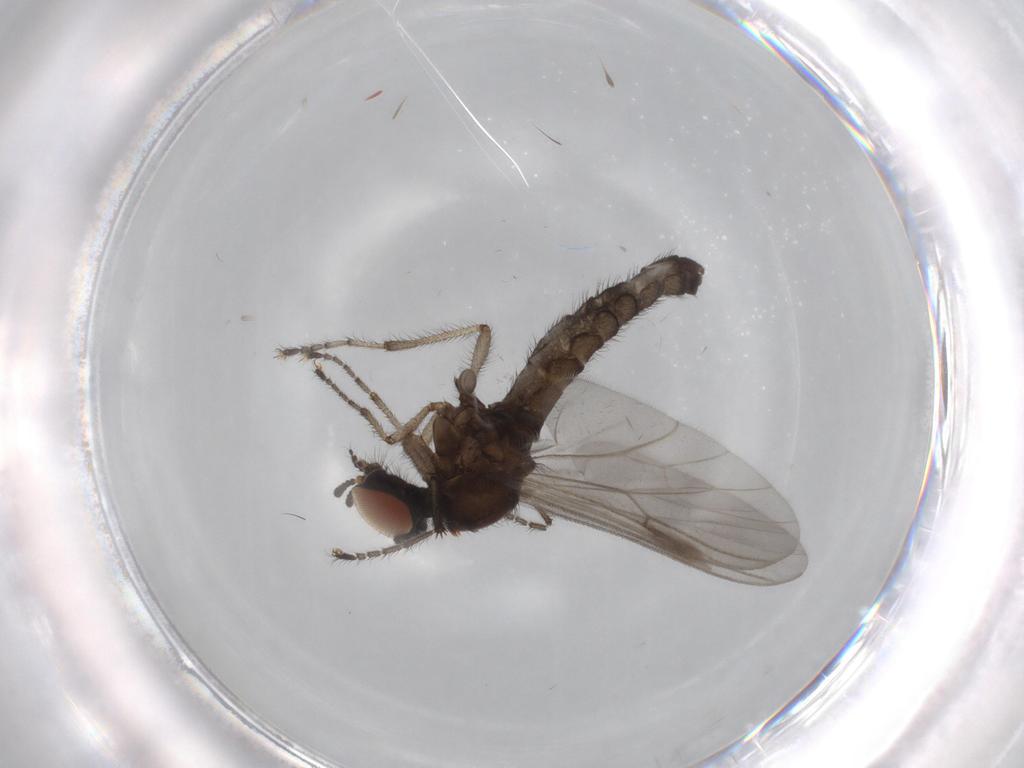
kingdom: Animalia
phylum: Arthropoda
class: Insecta
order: Diptera
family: Bibionidae
